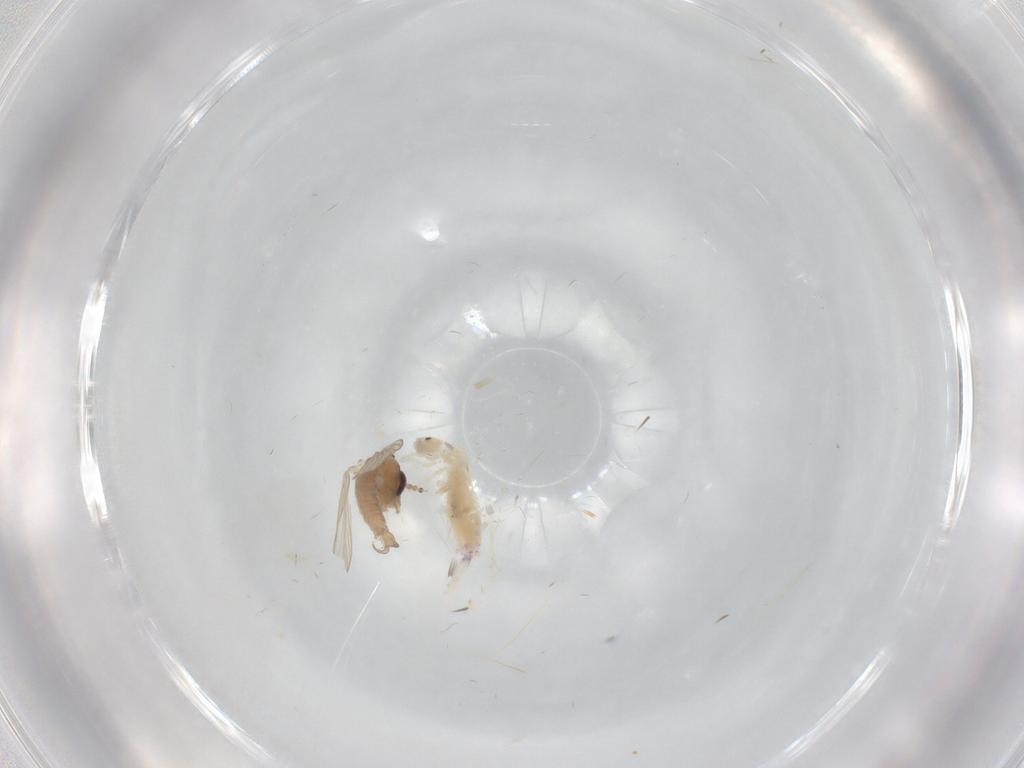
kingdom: Animalia
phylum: Arthropoda
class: Insecta
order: Diptera
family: Psychodidae
